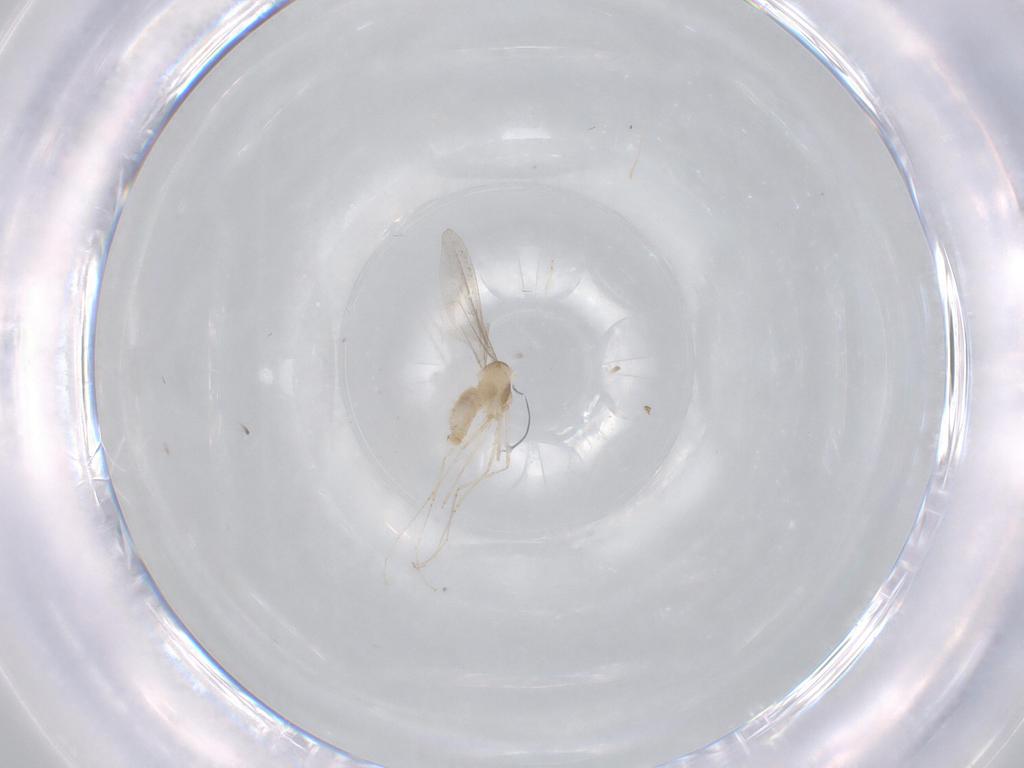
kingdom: Animalia
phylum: Arthropoda
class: Insecta
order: Diptera
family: Cecidomyiidae
